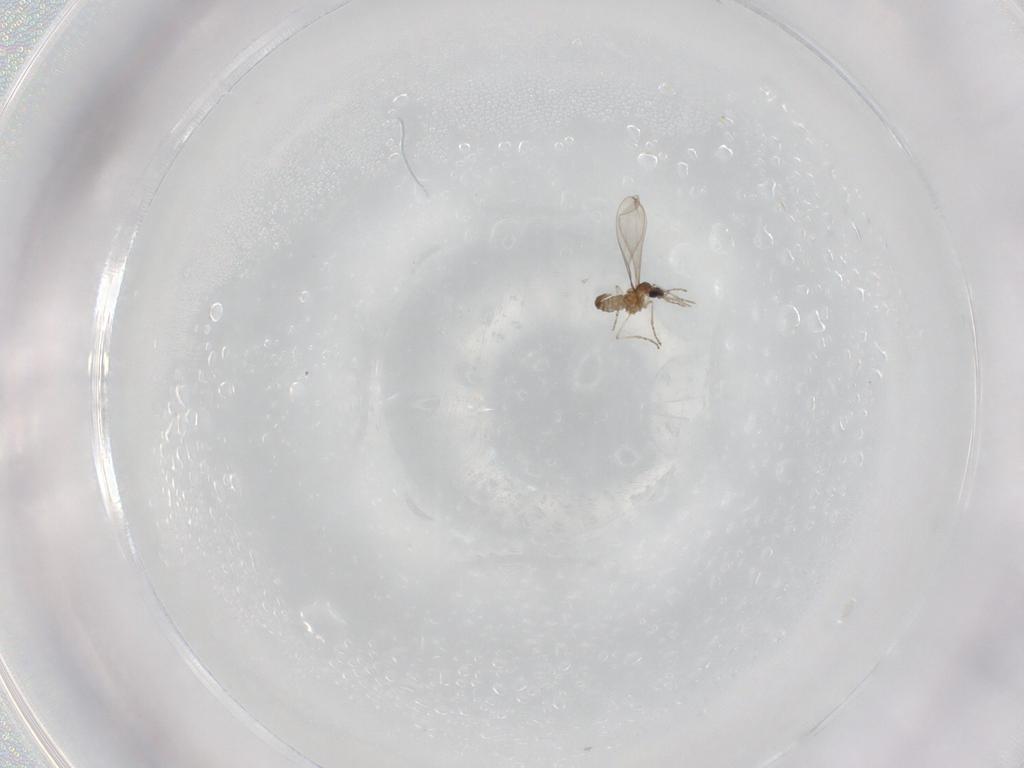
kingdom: Animalia
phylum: Arthropoda
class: Insecta
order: Diptera
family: Cecidomyiidae
